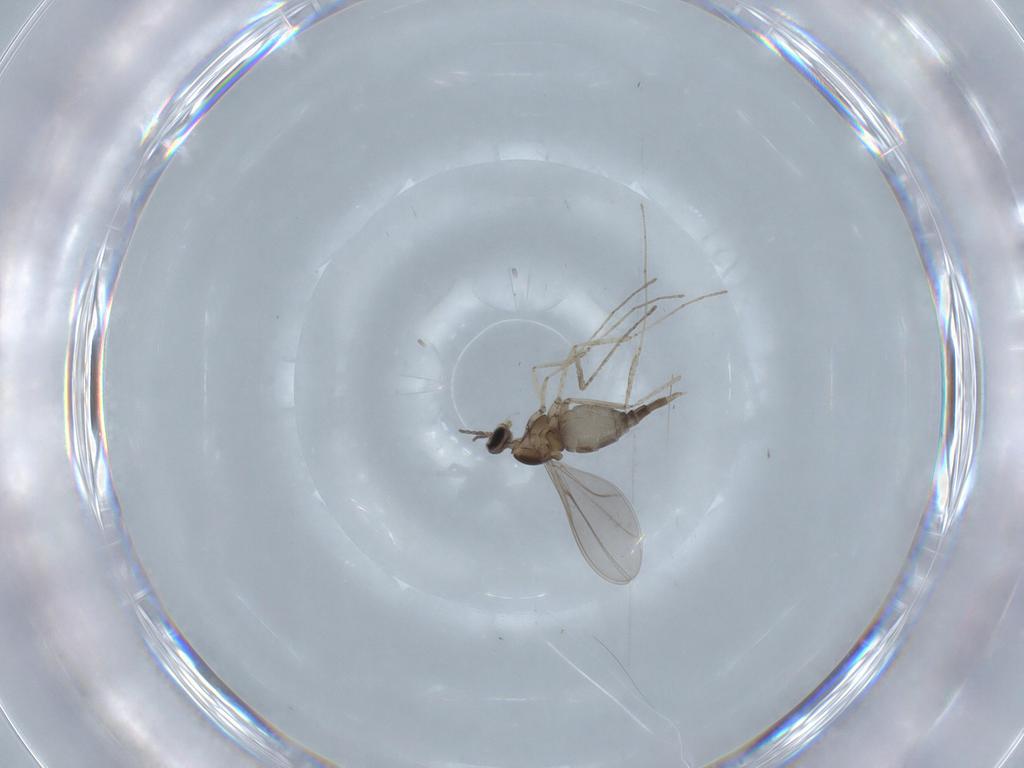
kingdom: Animalia
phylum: Arthropoda
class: Insecta
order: Diptera
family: Cecidomyiidae
